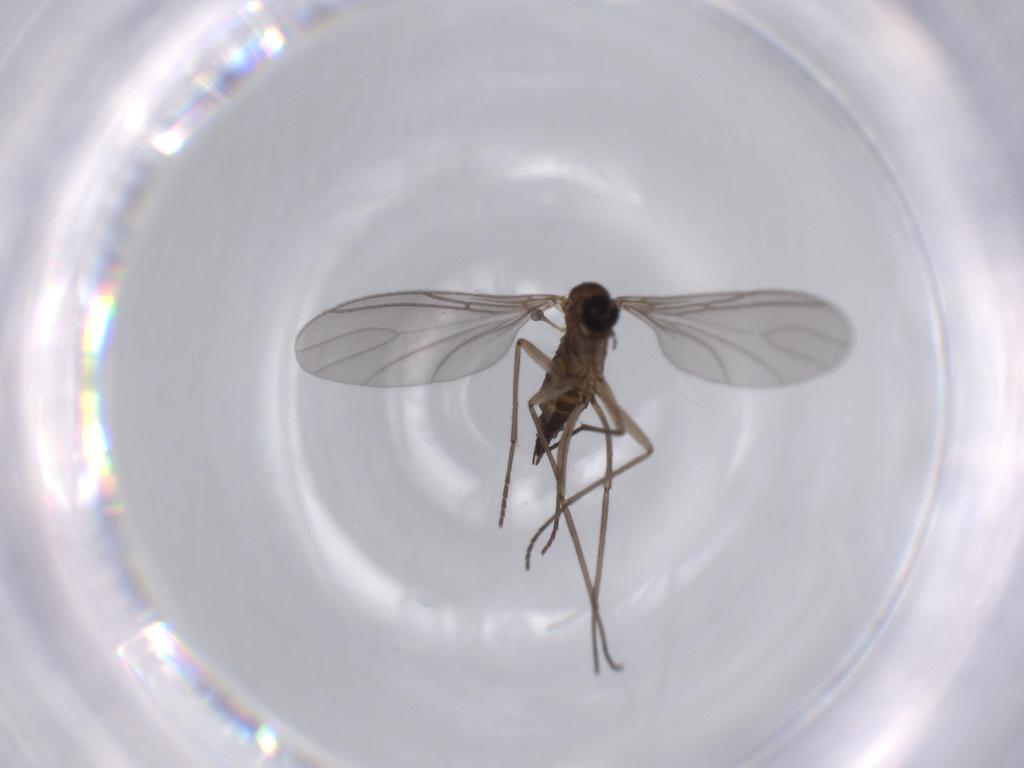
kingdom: Animalia
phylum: Arthropoda
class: Insecta
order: Diptera
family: Sciaridae
